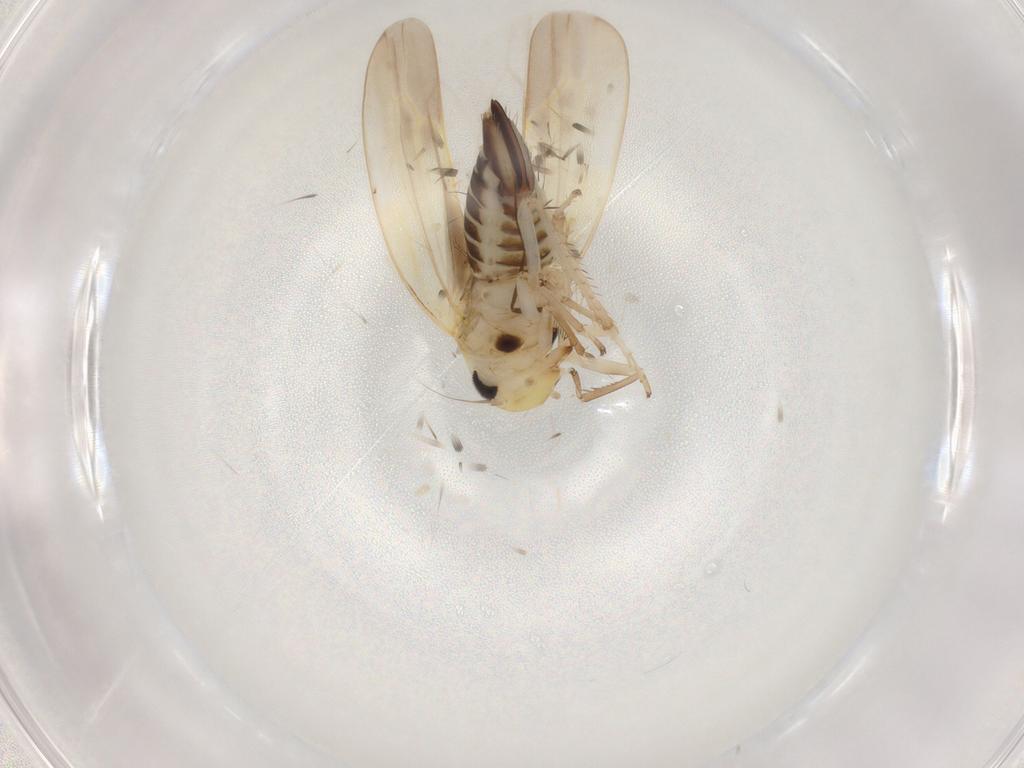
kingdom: Animalia
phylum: Arthropoda
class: Insecta
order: Hemiptera
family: Cicadellidae
